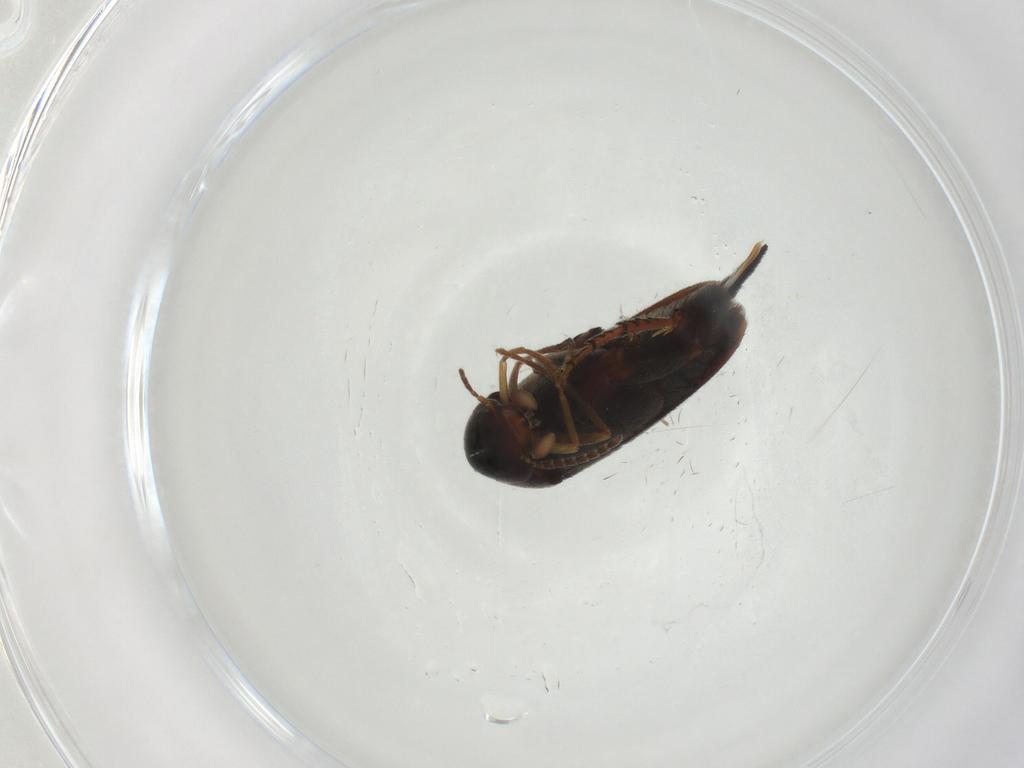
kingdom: Animalia
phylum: Arthropoda
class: Insecta
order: Coleoptera
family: Mordellidae
